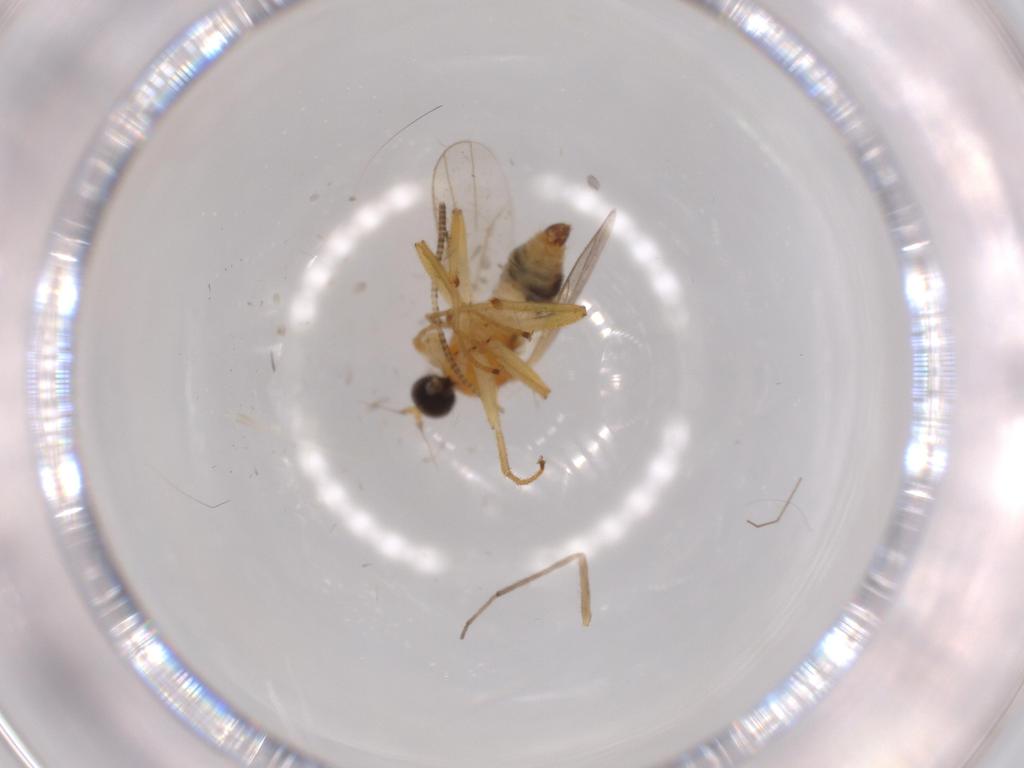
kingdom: Animalia
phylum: Arthropoda
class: Insecta
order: Diptera
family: Hybotidae
